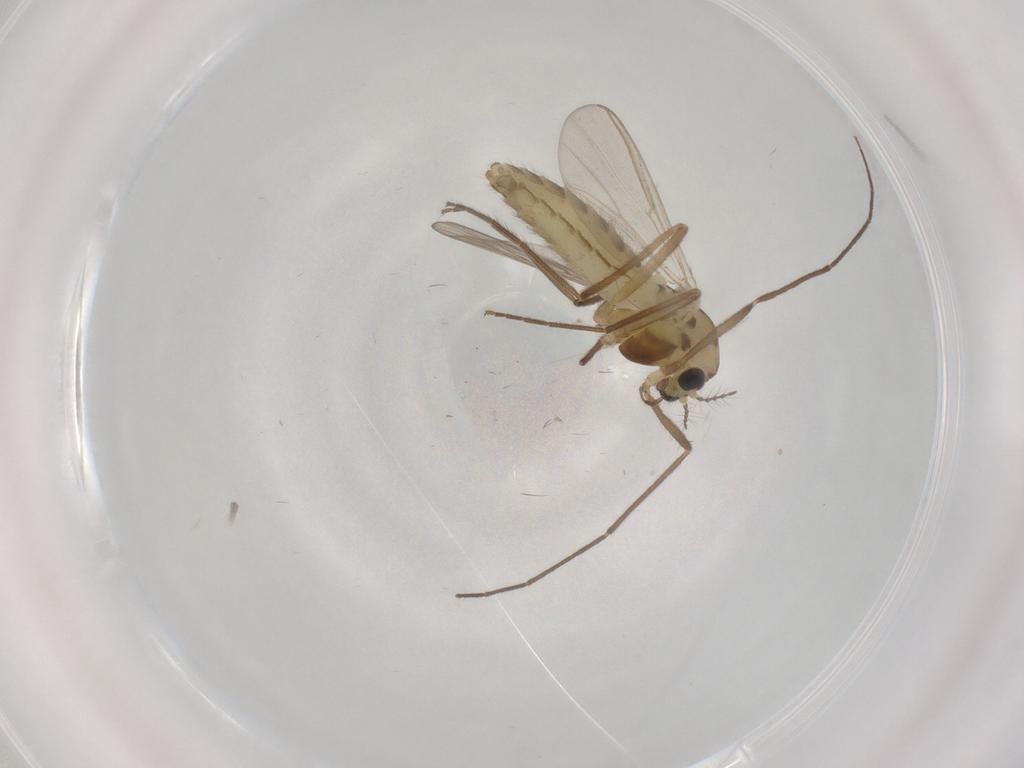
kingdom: Animalia
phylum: Arthropoda
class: Insecta
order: Diptera
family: Chironomidae
